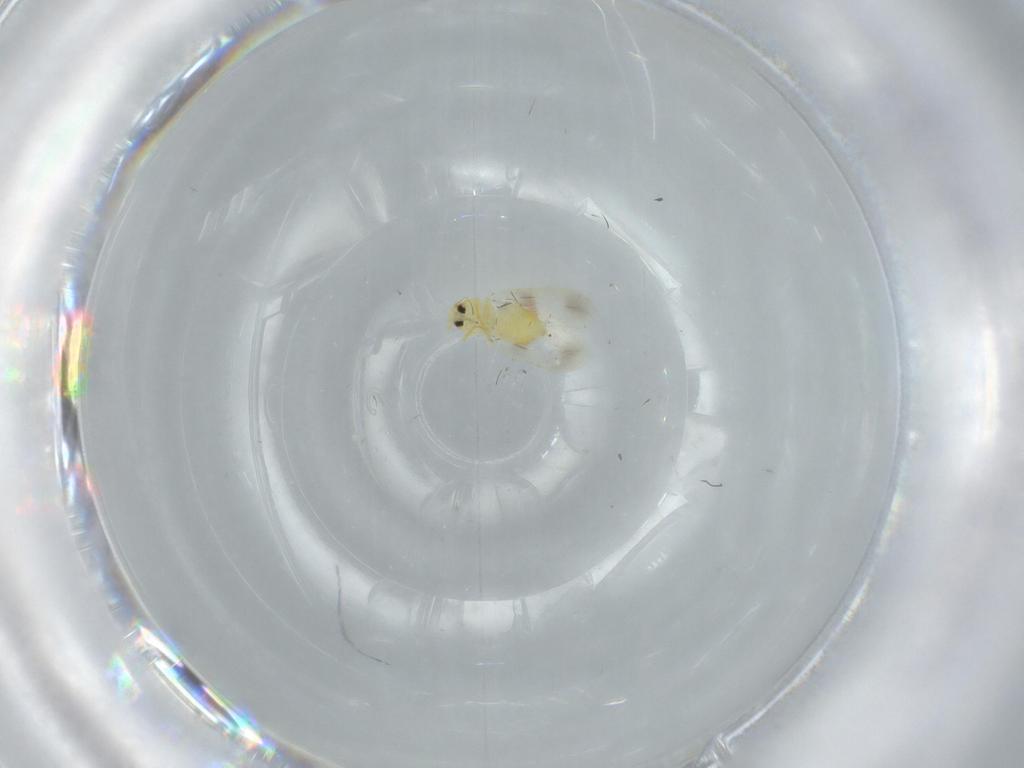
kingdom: Animalia
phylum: Arthropoda
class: Insecta
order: Hemiptera
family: Aleyrodidae
